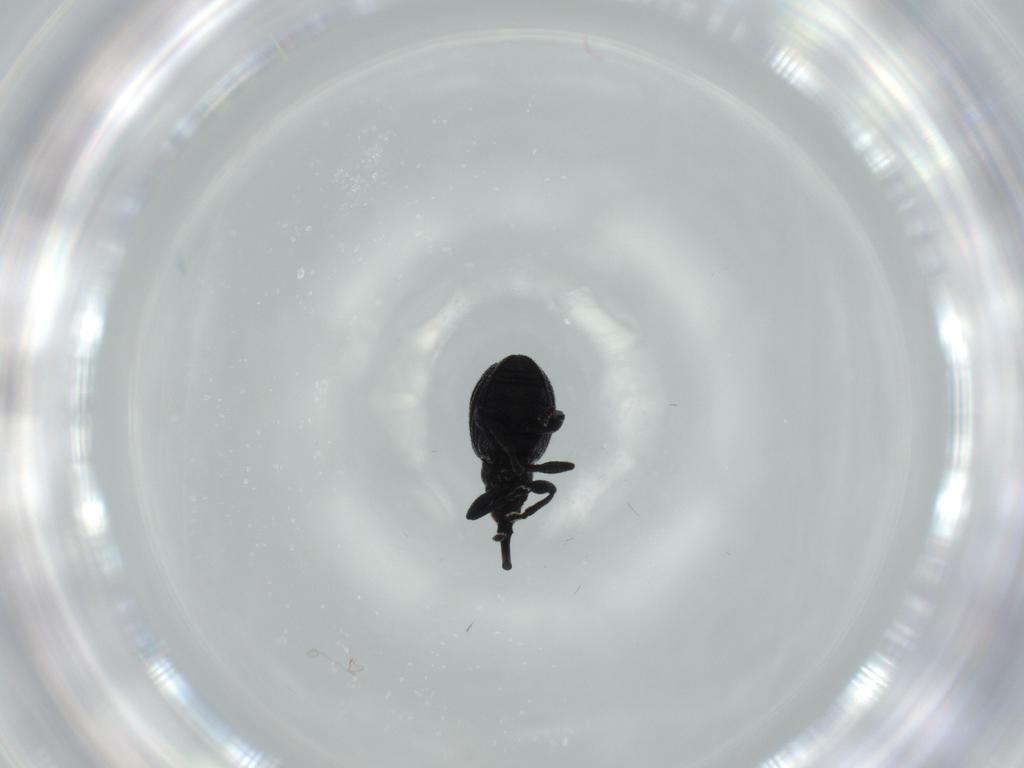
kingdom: Animalia
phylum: Arthropoda
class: Insecta
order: Coleoptera
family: Brentidae
